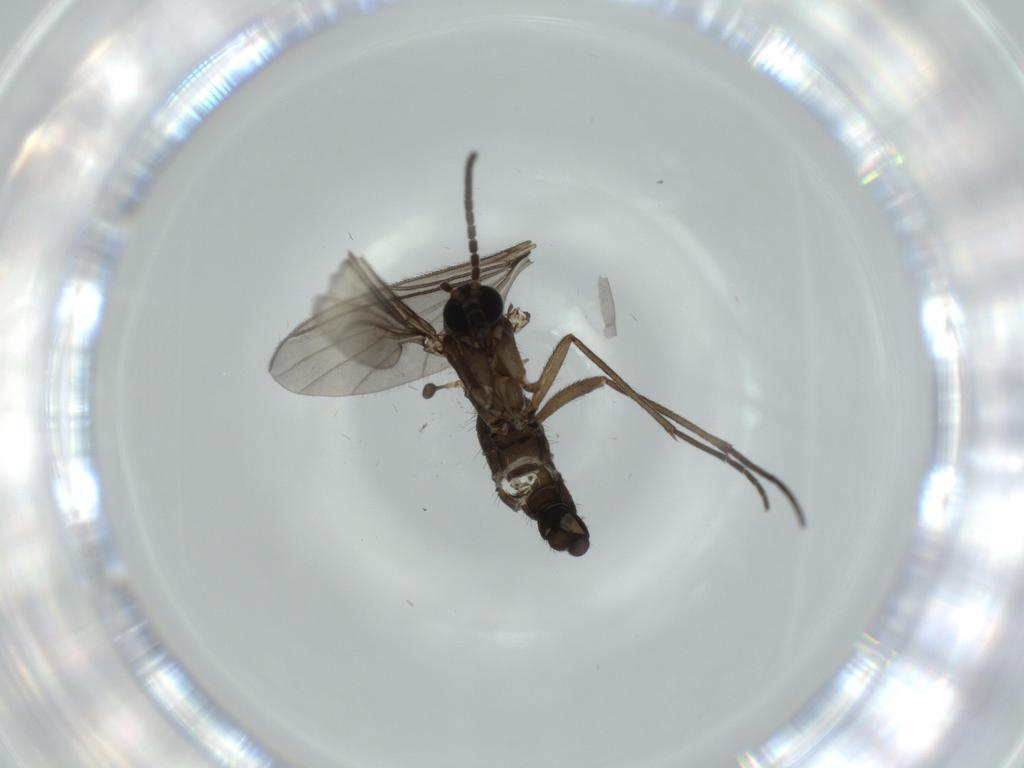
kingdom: Animalia
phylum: Arthropoda
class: Insecta
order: Diptera
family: Sciaridae
